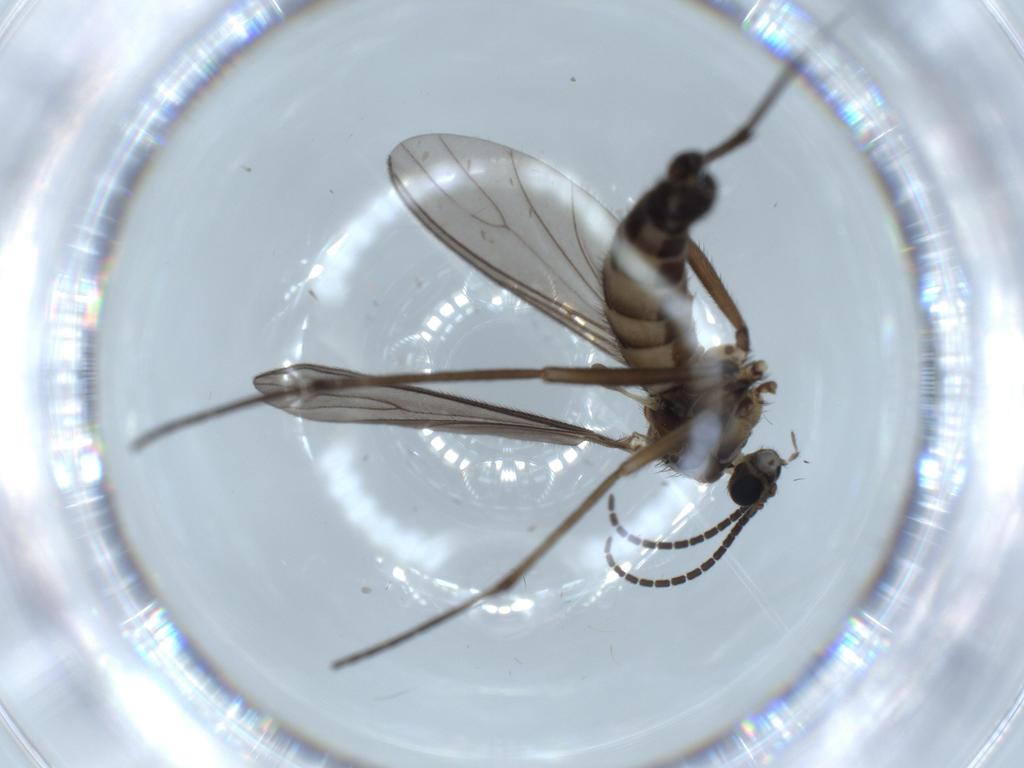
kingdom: Animalia
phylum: Arthropoda
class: Insecta
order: Diptera
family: Sciaridae
